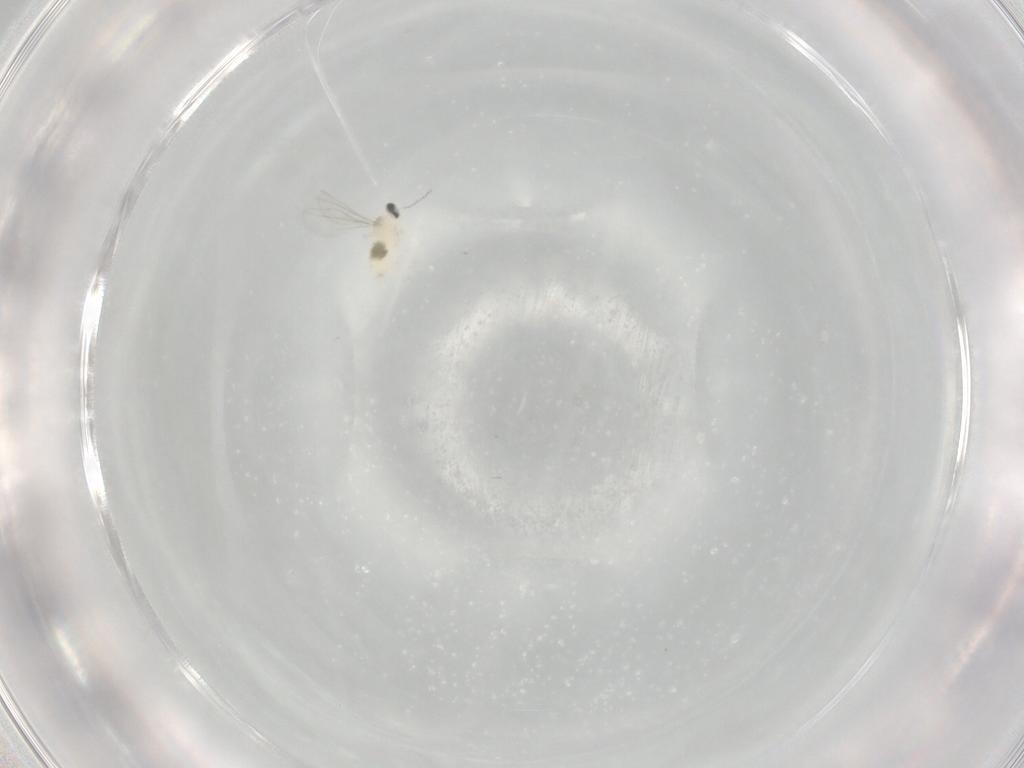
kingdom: Animalia
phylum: Arthropoda
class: Insecta
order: Diptera
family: Cecidomyiidae
